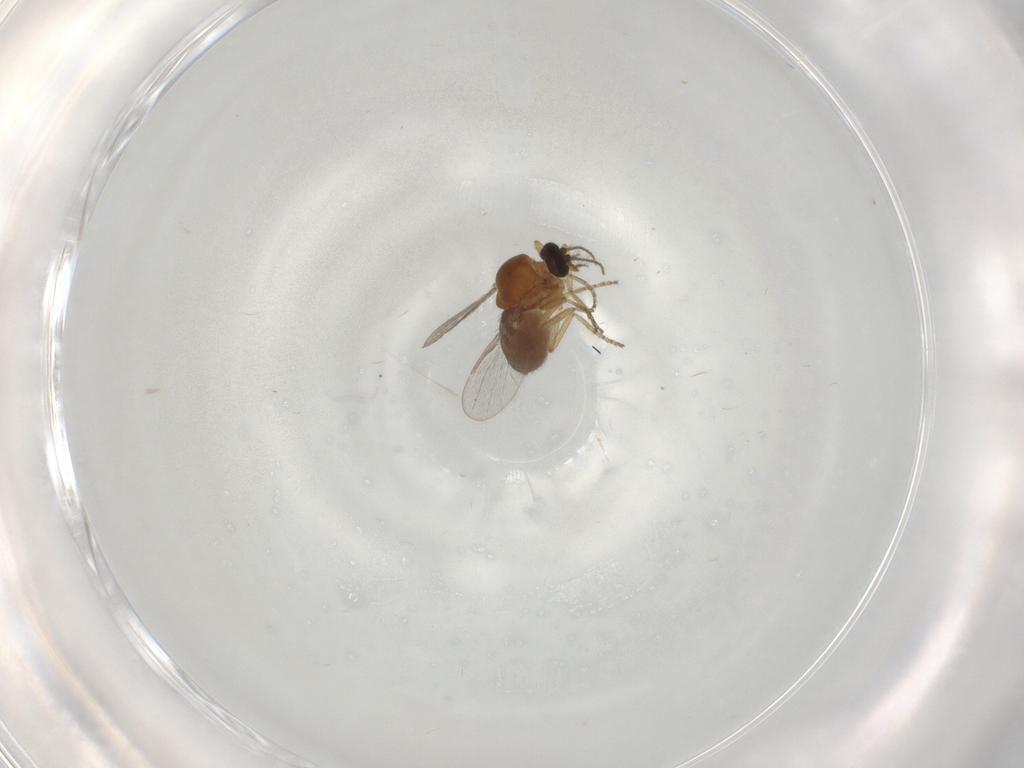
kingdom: Animalia
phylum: Arthropoda
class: Insecta
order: Diptera
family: Ceratopogonidae
